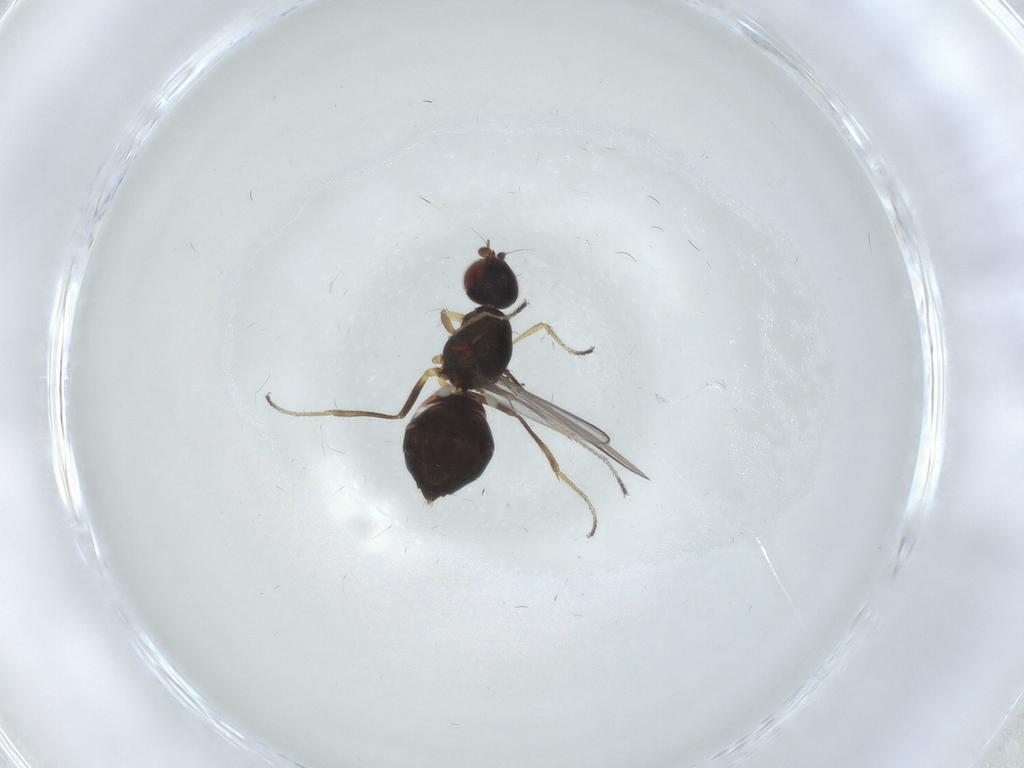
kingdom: Animalia
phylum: Arthropoda
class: Insecta
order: Diptera
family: Sepsidae
